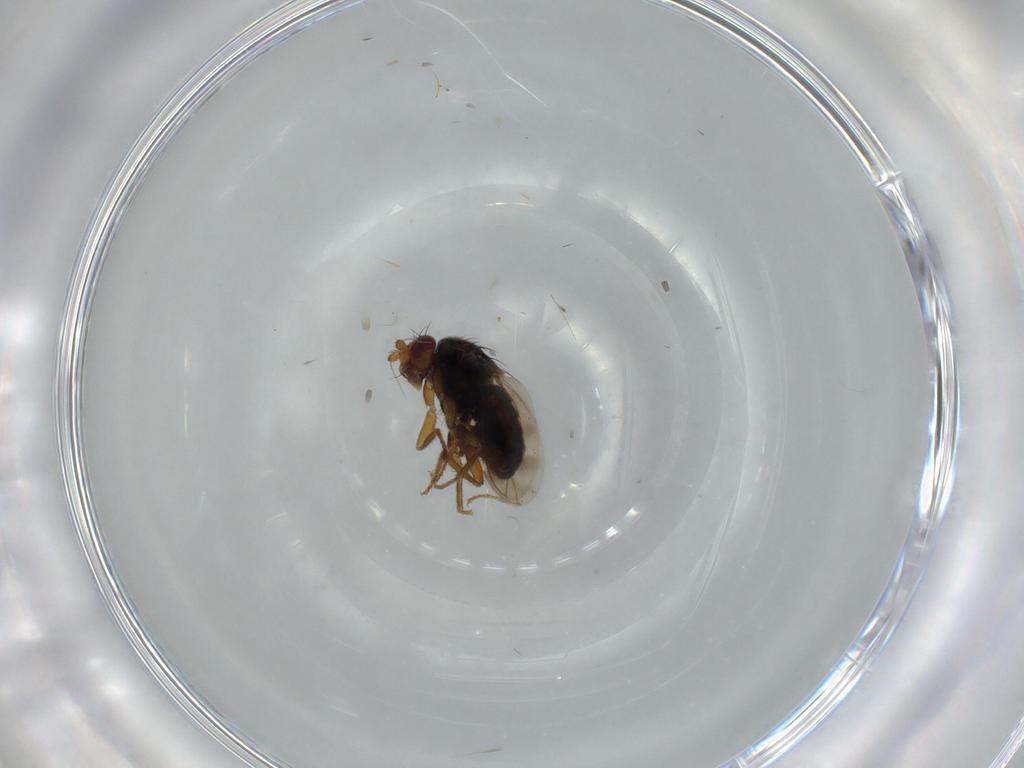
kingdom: Animalia
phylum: Arthropoda
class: Insecta
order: Diptera
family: Sphaeroceridae
